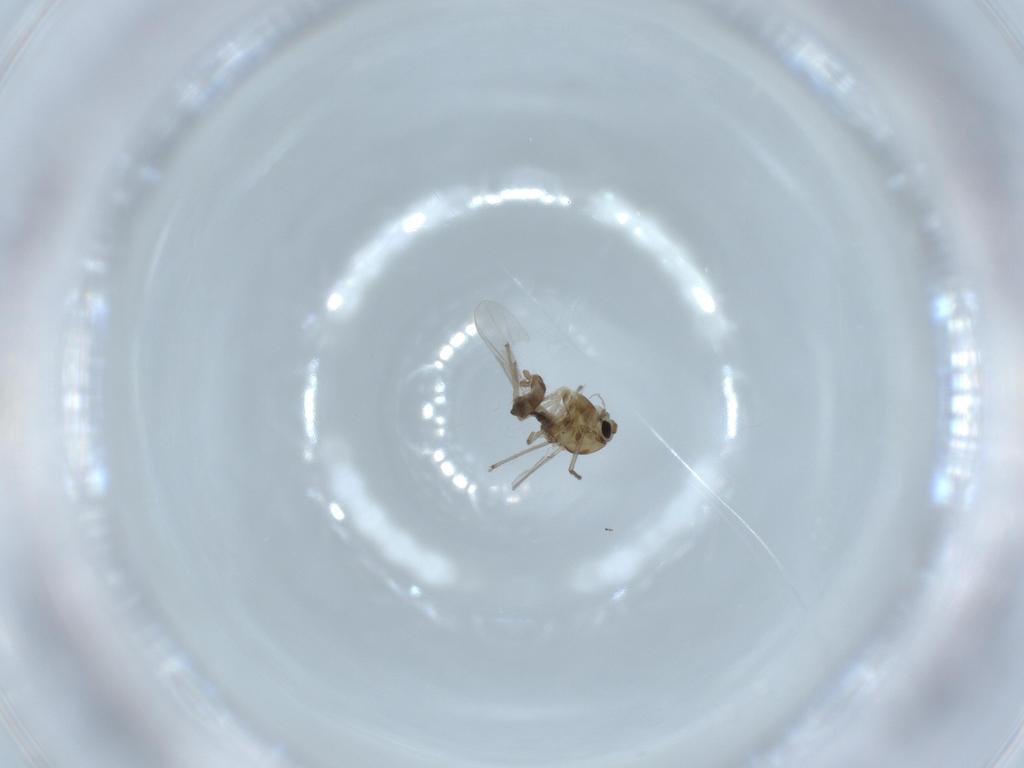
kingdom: Animalia
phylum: Arthropoda
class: Insecta
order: Diptera
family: Chironomidae
